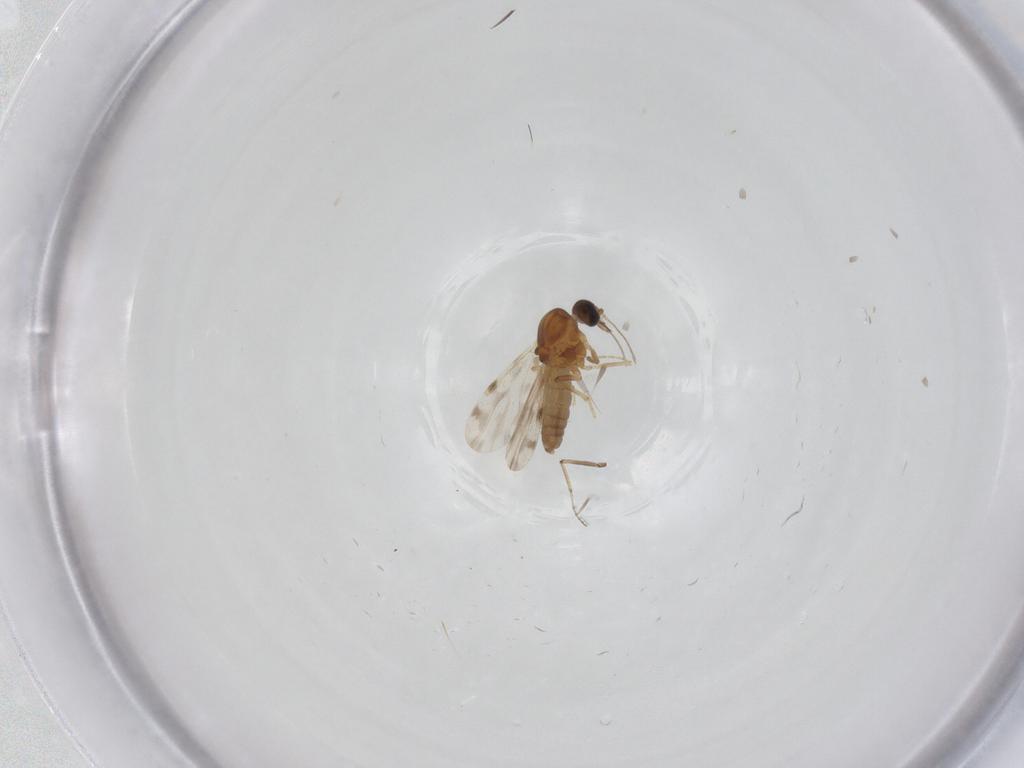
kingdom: Animalia
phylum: Arthropoda
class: Insecta
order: Diptera
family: Ceratopogonidae
